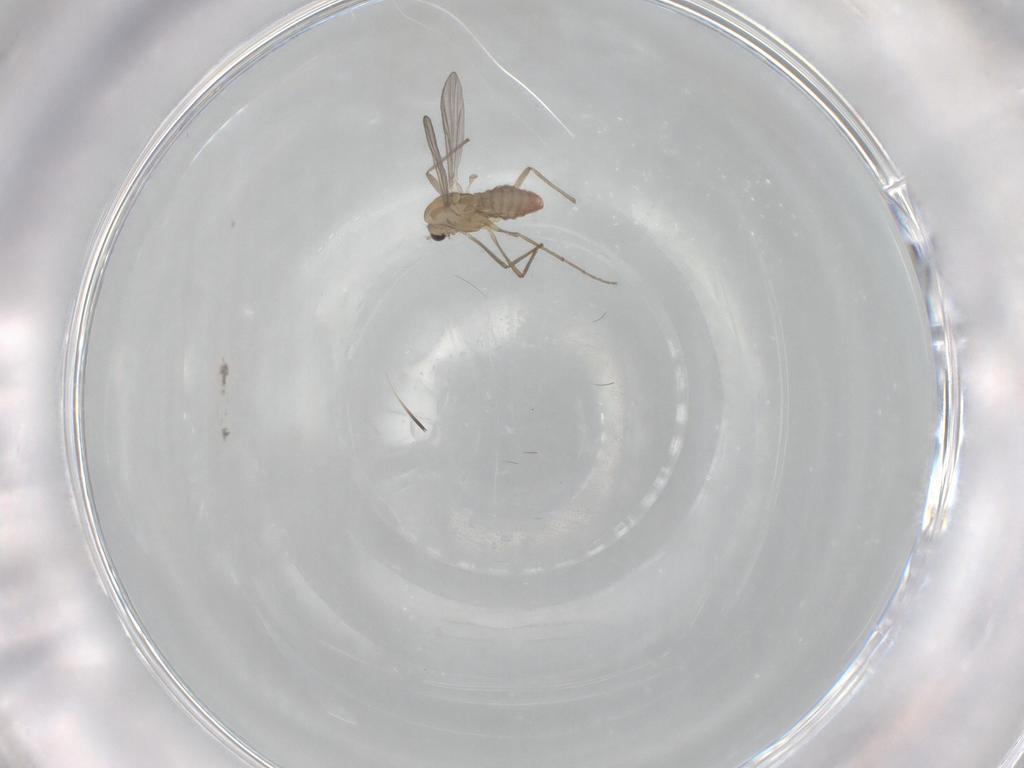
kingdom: Animalia
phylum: Arthropoda
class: Insecta
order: Diptera
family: Chironomidae
